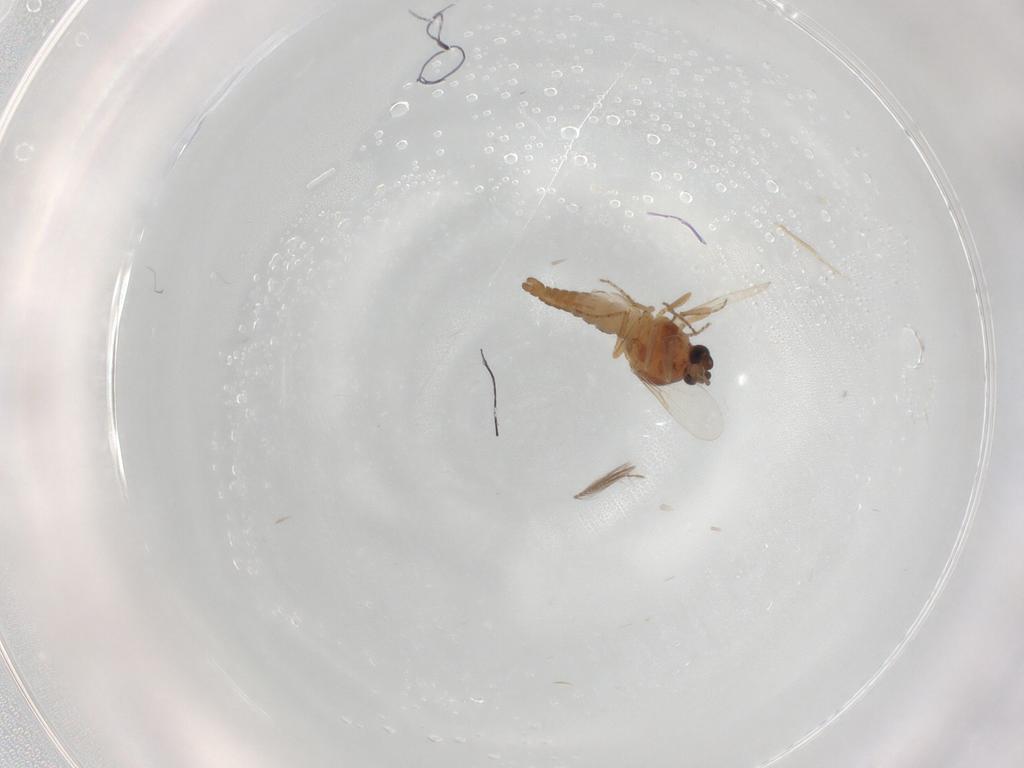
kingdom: Animalia
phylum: Arthropoda
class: Insecta
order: Diptera
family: Ceratopogonidae
